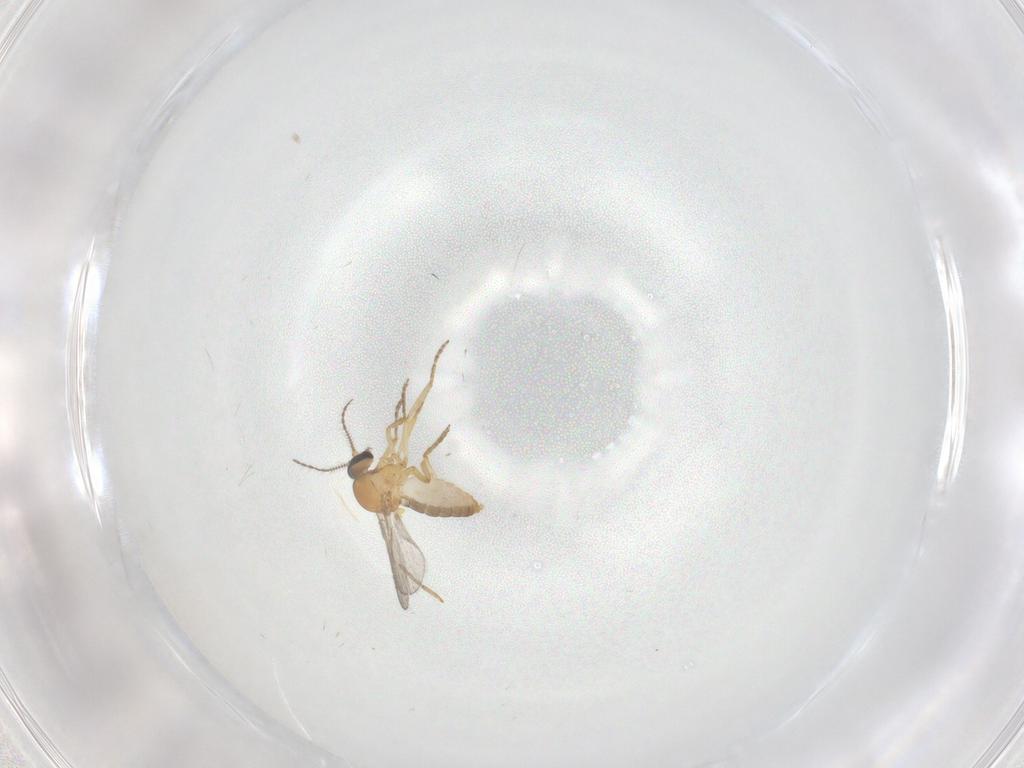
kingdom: Animalia
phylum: Arthropoda
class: Insecta
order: Diptera
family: Ceratopogonidae
